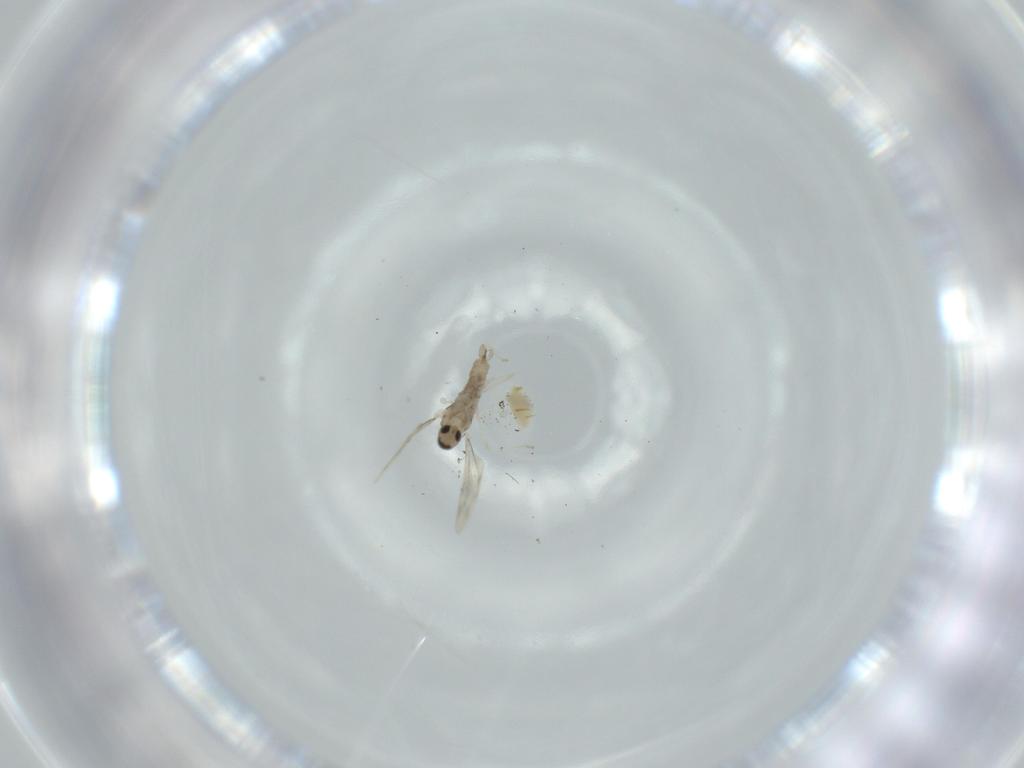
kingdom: Animalia
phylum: Arthropoda
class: Insecta
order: Diptera
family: Cecidomyiidae
